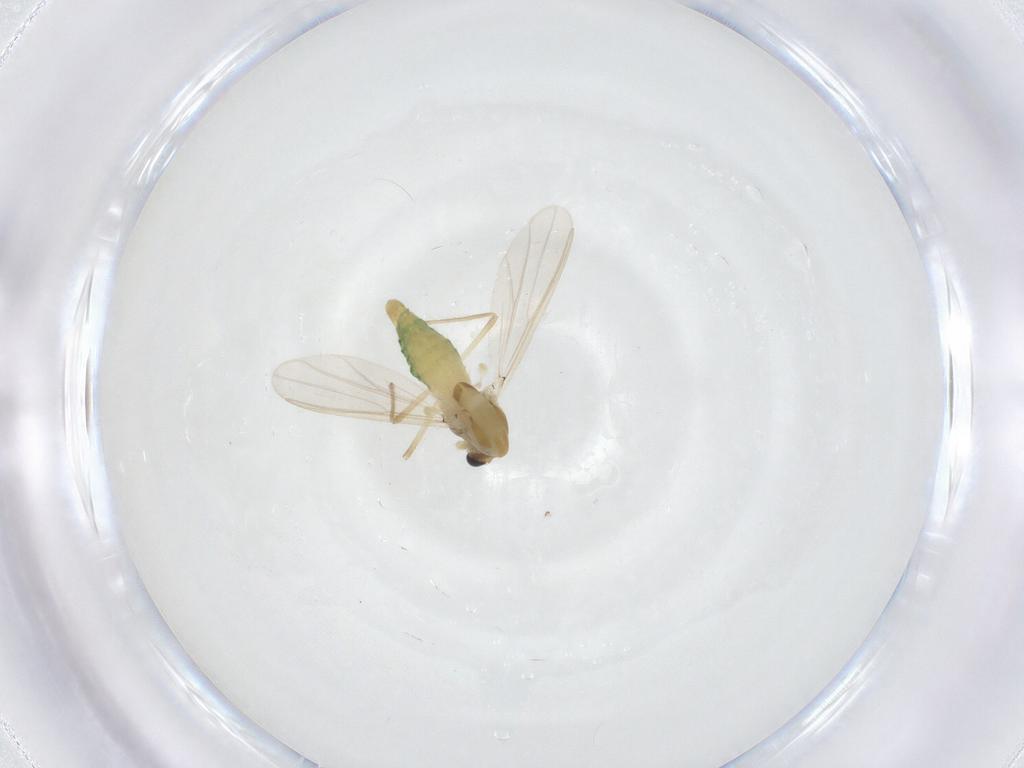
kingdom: Animalia
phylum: Arthropoda
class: Insecta
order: Diptera
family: Chironomidae
